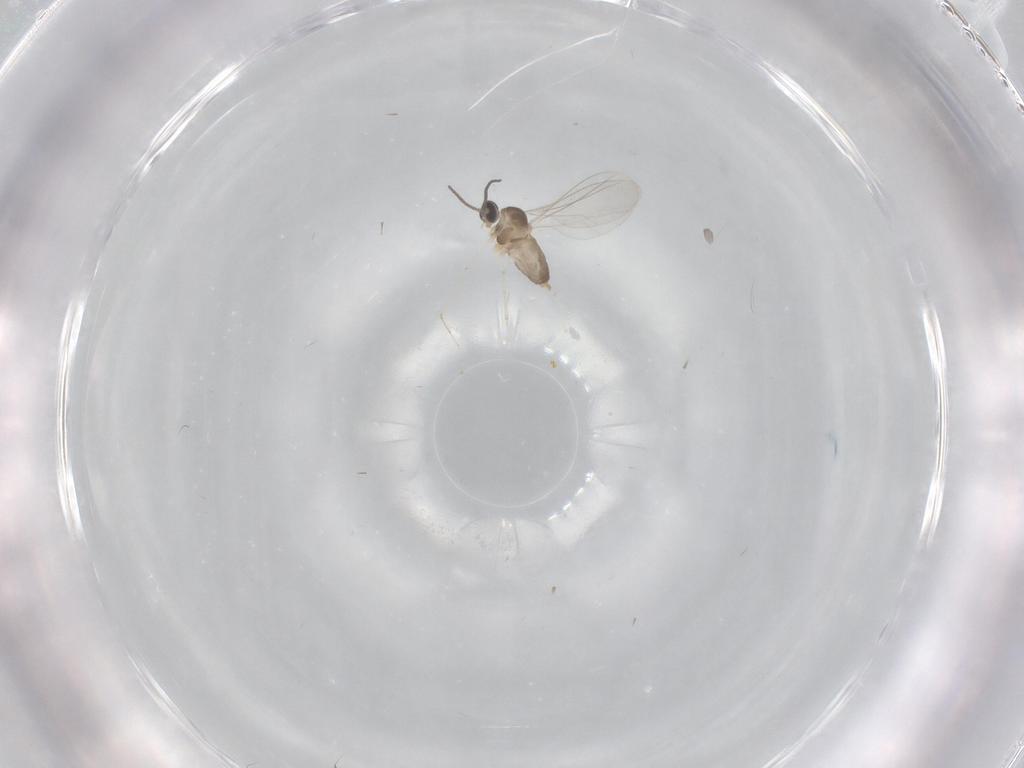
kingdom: Animalia
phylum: Arthropoda
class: Insecta
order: Diptera
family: Cecidomyiidae
